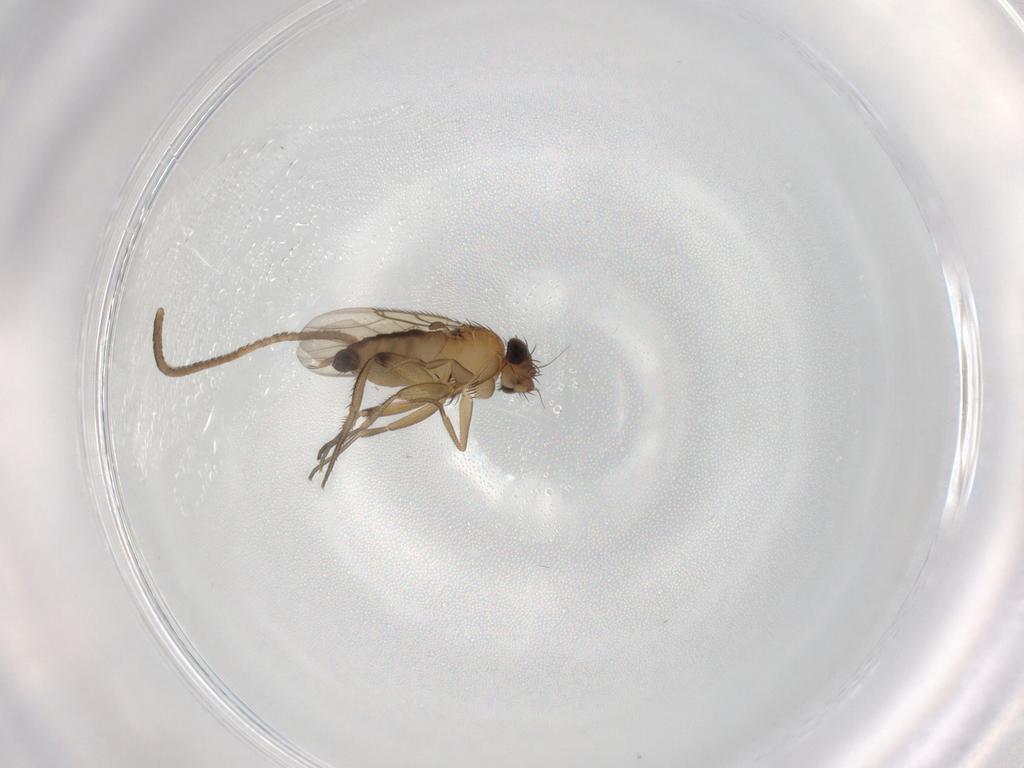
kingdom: Animalia
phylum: Arthropoda
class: Insecta
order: Diptera
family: Phoridae
